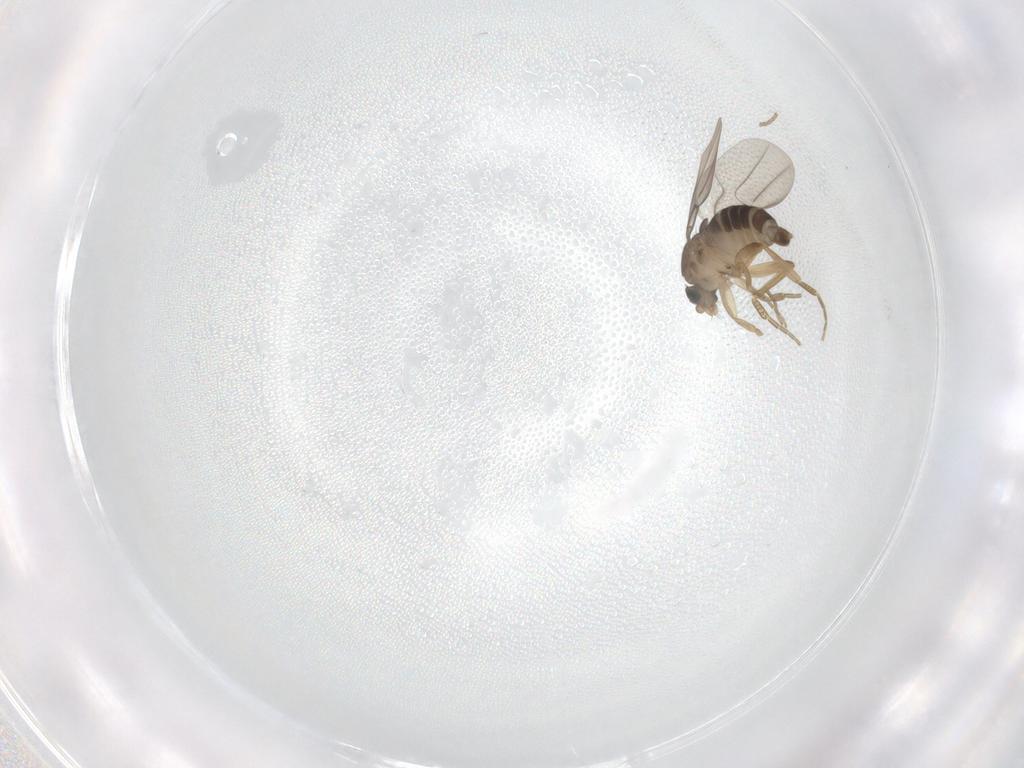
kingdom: Animalia
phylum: Arthropoda
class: Insecta
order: Diptera
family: Phoridae
